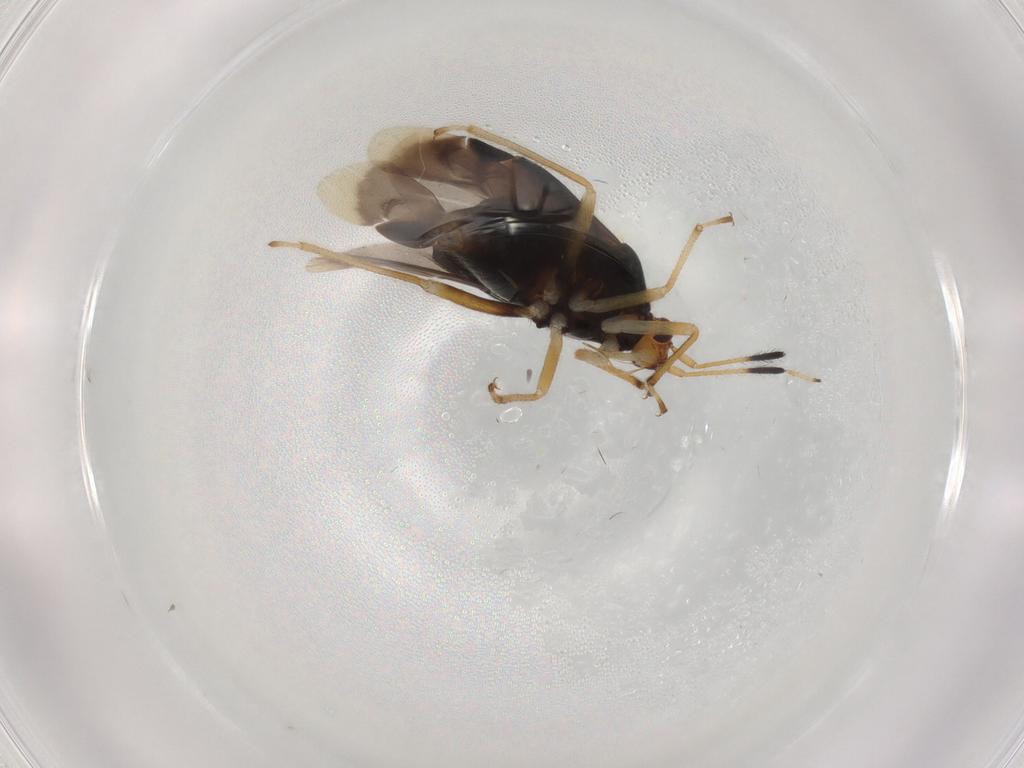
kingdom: Animalia
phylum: Arthropoda
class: Insecta
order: Hemiptera
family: Miridae
